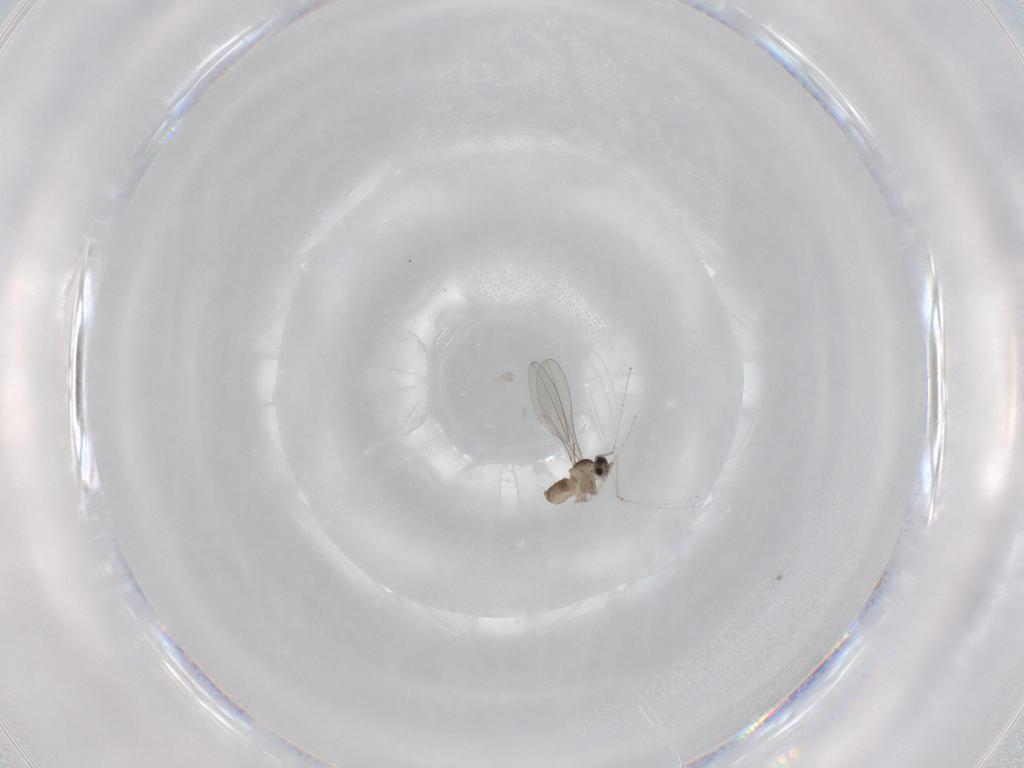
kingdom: Animalia
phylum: Arthropoda
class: Insecta
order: Diptera
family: Cecidomyiidae
